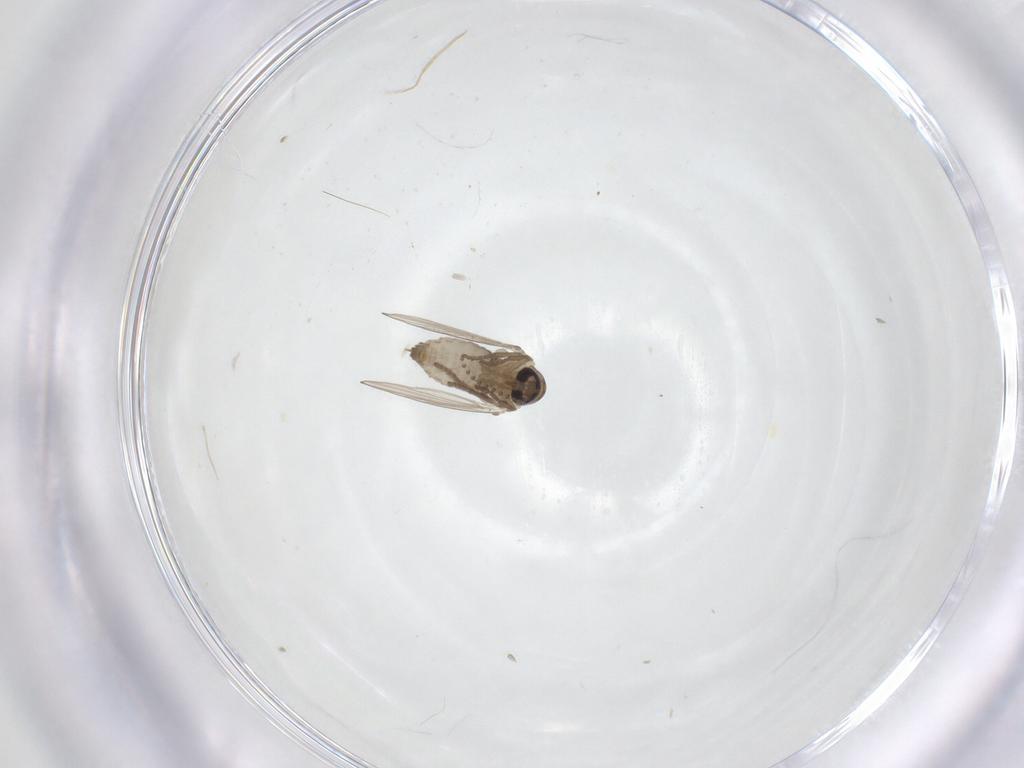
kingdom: Animalia
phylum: Arthropoda
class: Insecta
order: Diptera
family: Psychodidae
